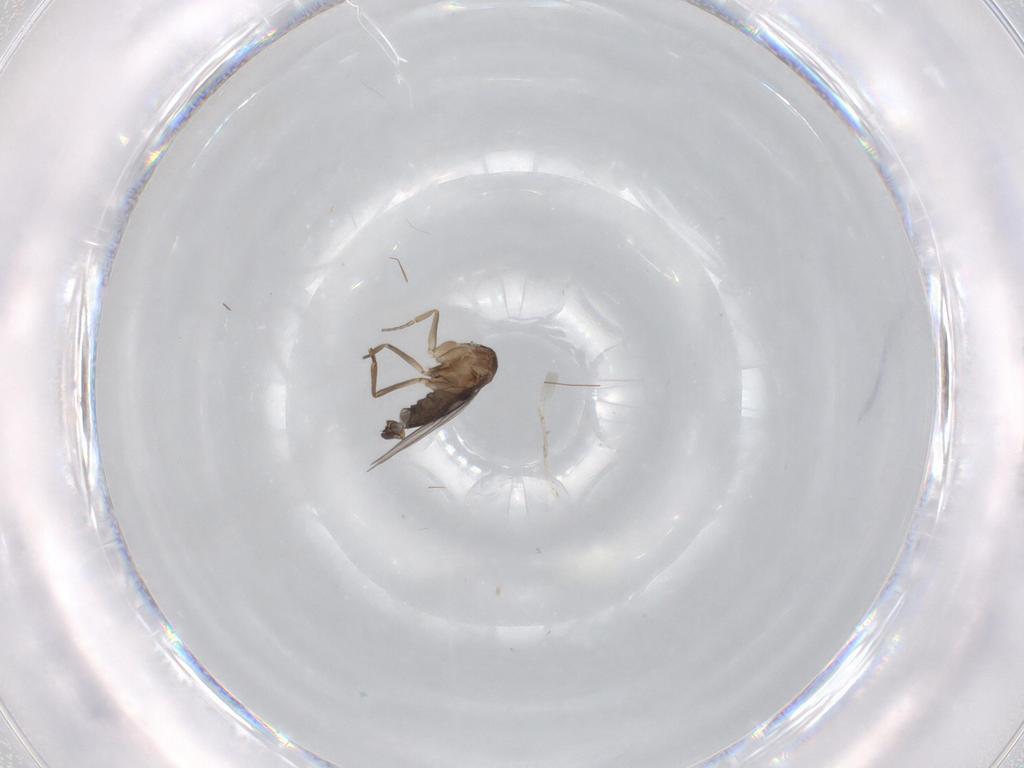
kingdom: Animalia
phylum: Arthropoda
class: Insecta
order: Diptera
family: Phoridae
